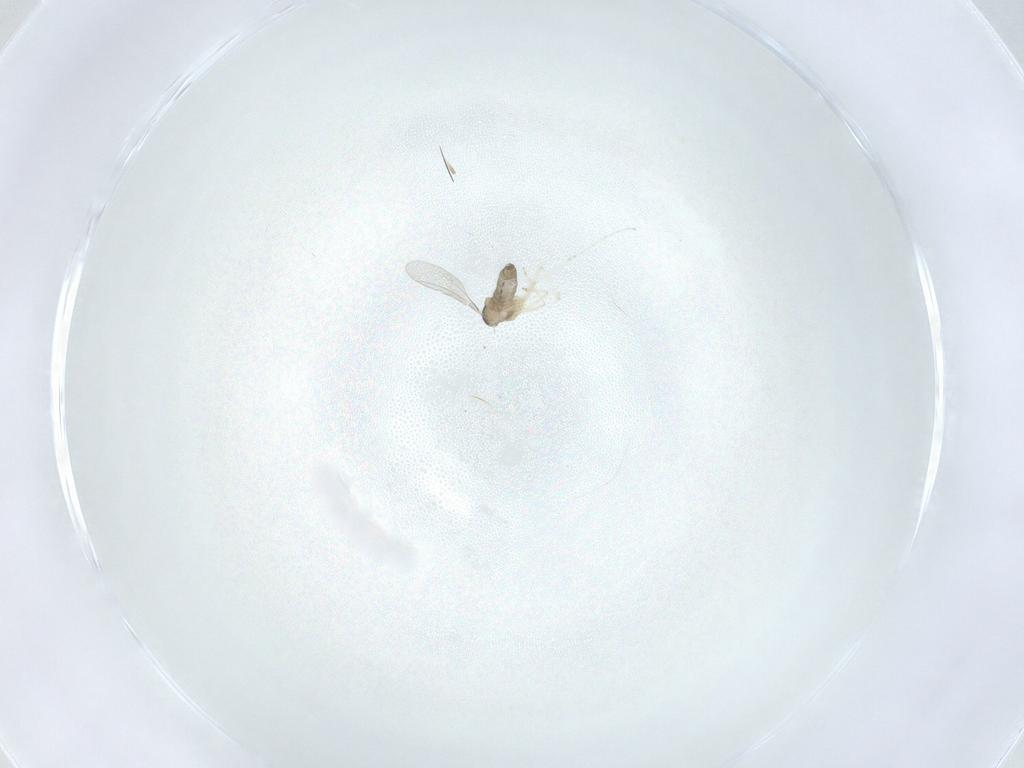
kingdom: Animalia
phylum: Arthropoda
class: Insecta
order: Diptera
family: Cecidomyiidae
